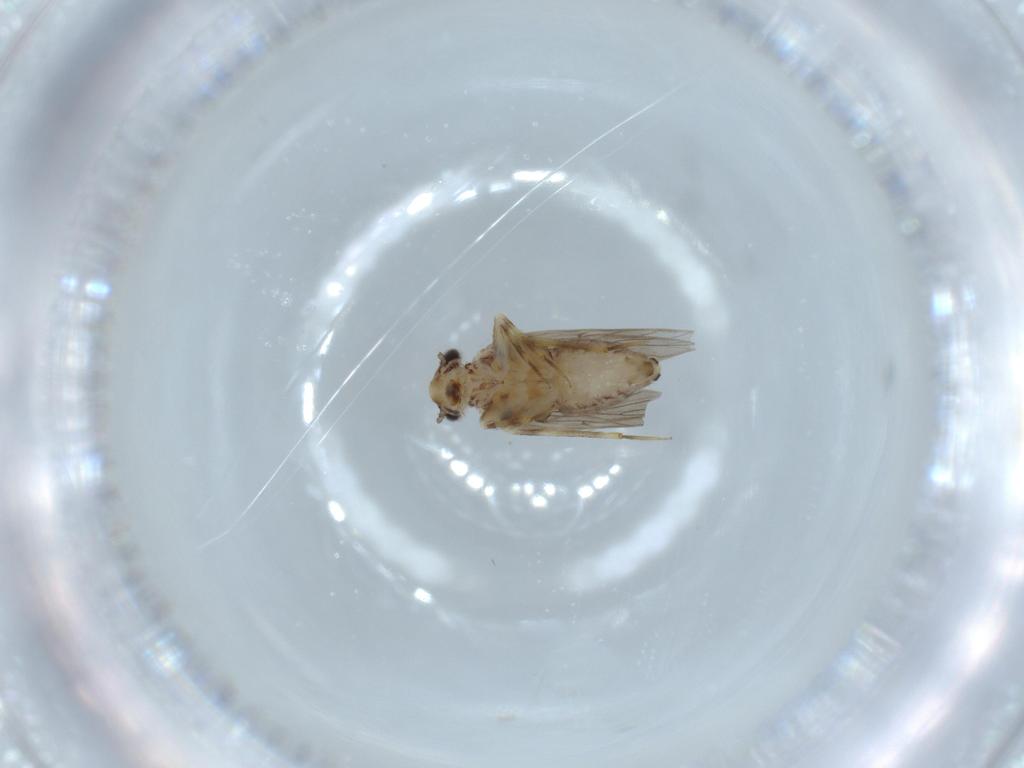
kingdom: Animalia
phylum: Arthropoda
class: Insecta
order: Psocodea
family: Lepidopsocidae
